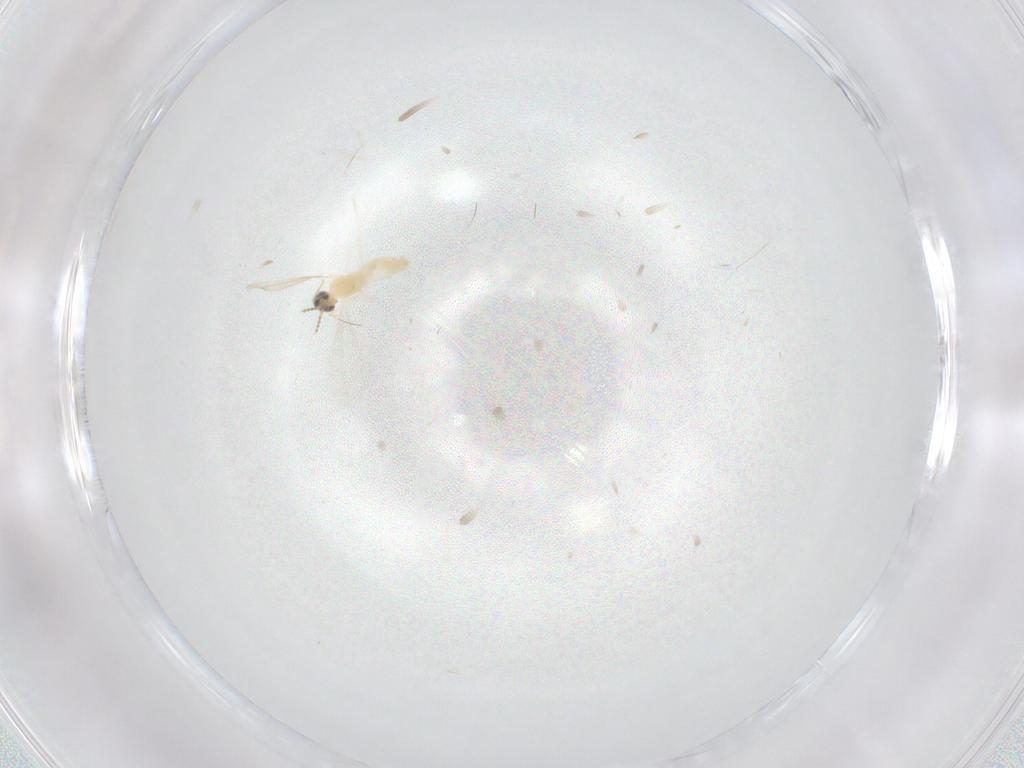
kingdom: Animalia
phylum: Arthropoda
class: Insecta
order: Diptera
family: Cecidomyiidae
